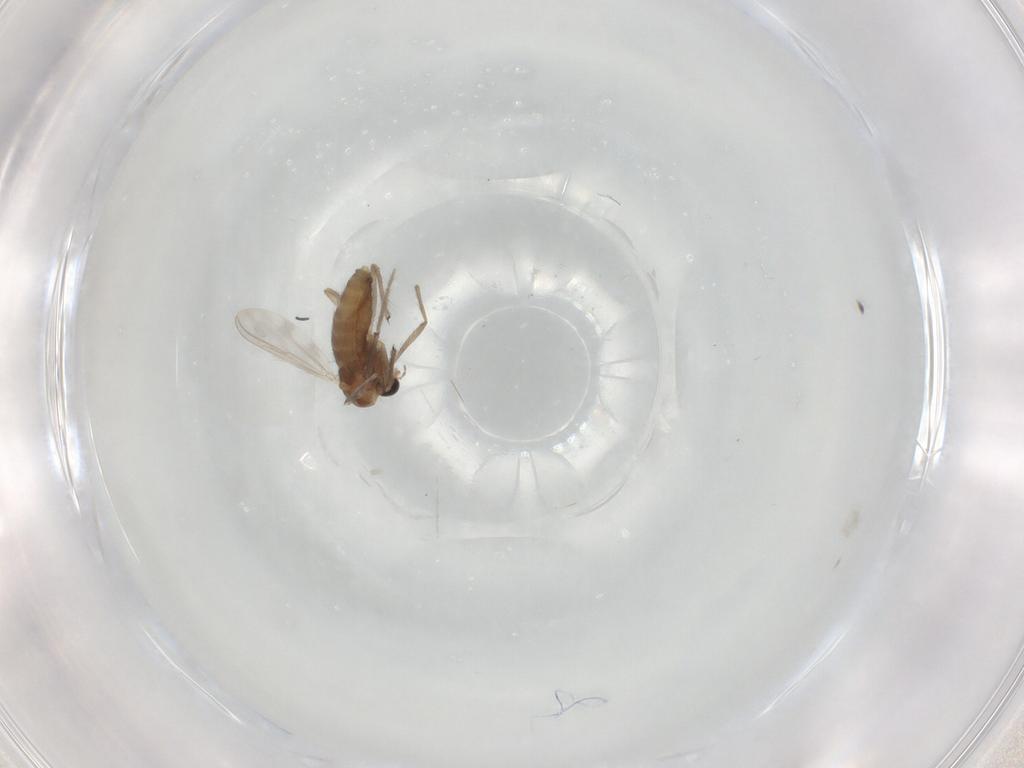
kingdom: Animalia
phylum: Arthropoda
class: Insecta
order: Diptera
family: Chironomidae
